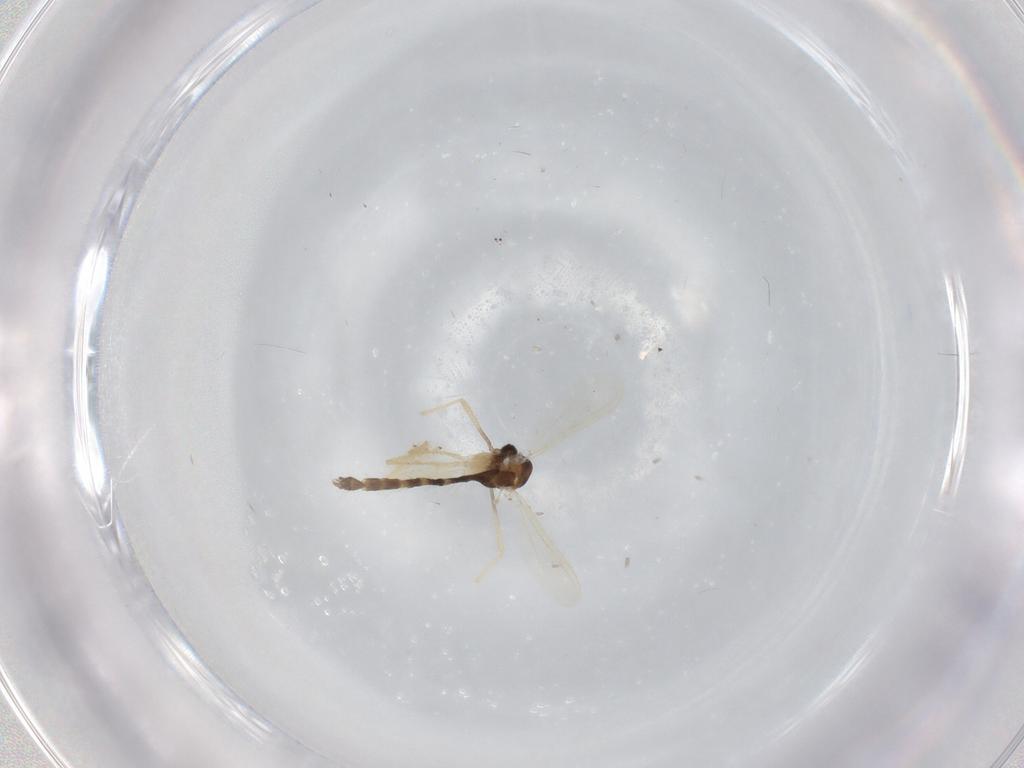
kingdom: Animalia
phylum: Arthropoda
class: Insecta
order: Diptera
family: Chironomidae
